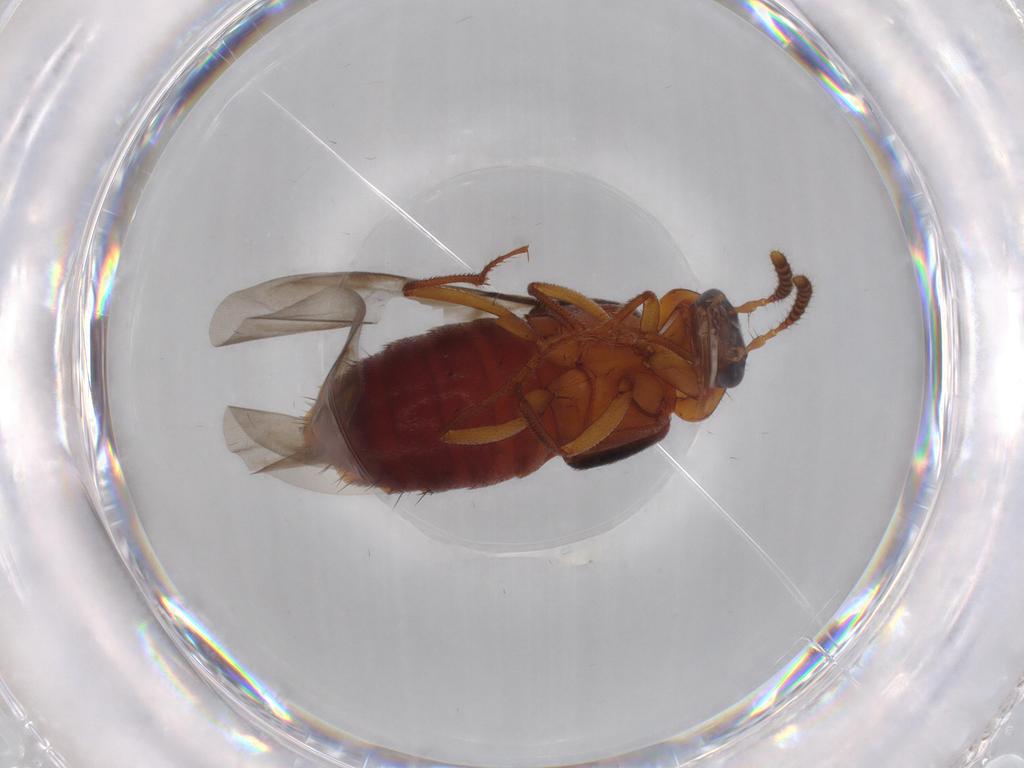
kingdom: Animalia
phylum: Arthropoda
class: Insecta
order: Coleoptera
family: Staphylinidae
